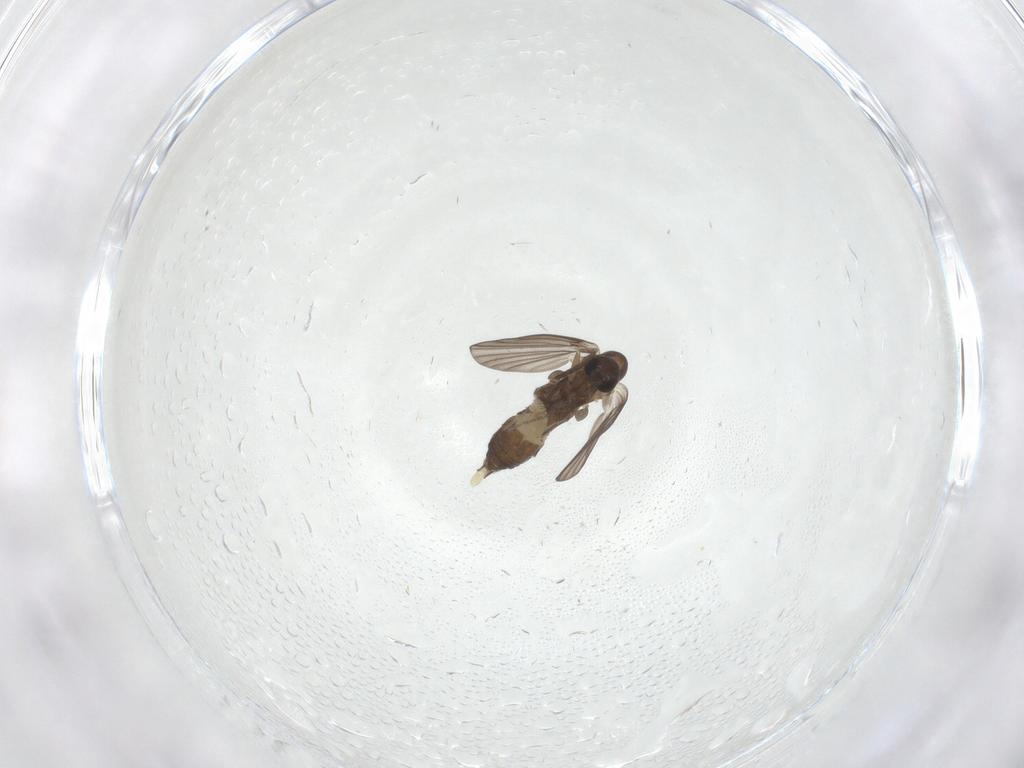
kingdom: Animalia
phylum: Arthropoda
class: Insecta
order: Diptera
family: Cecidomyiidae
